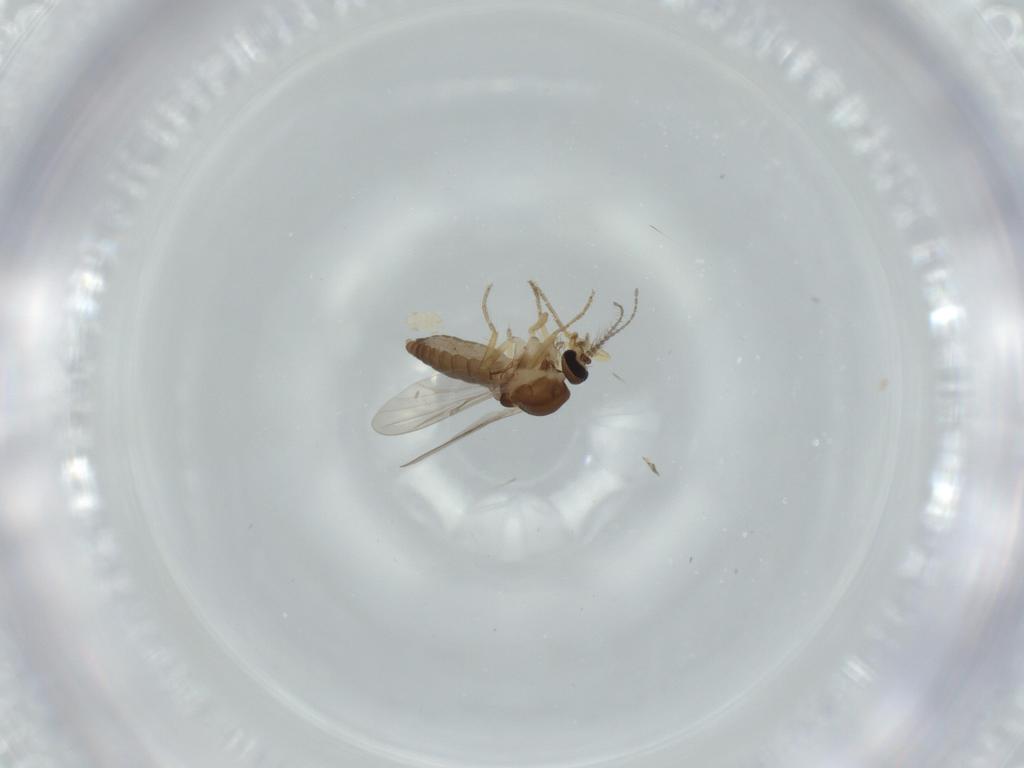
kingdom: Animalia
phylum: Arthropoda
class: Insecta
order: Diptera
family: Ceratopogonidae
